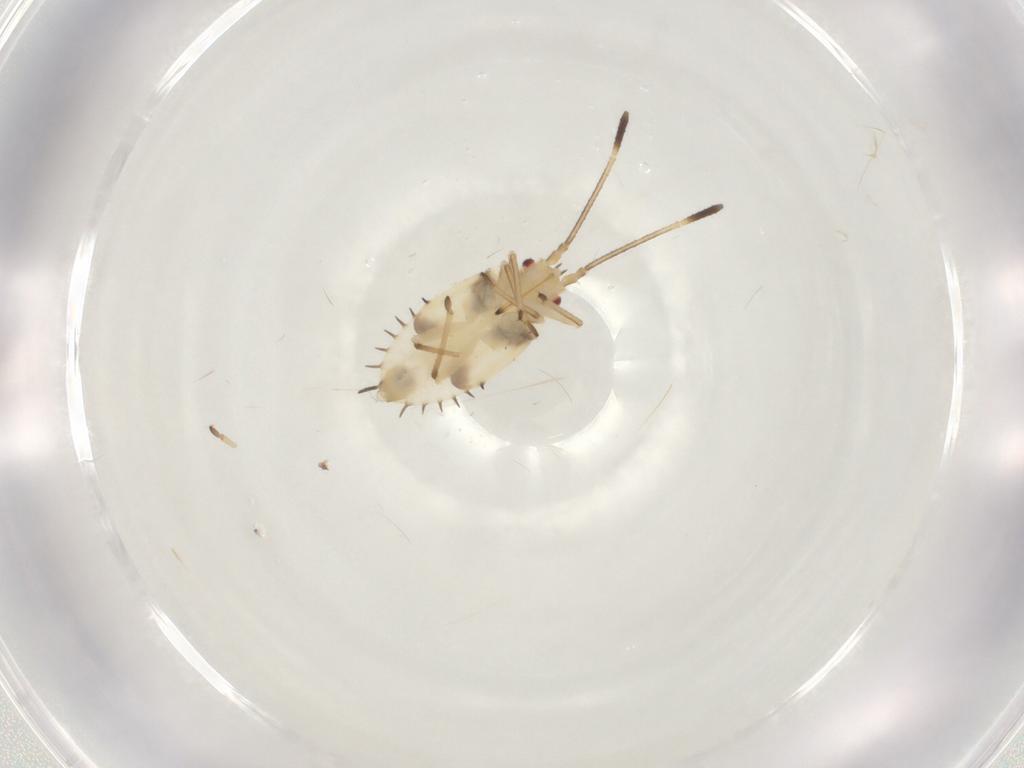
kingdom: Animalia
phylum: Arthropoda
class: Insecta
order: Hemiptera
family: Tingidae
